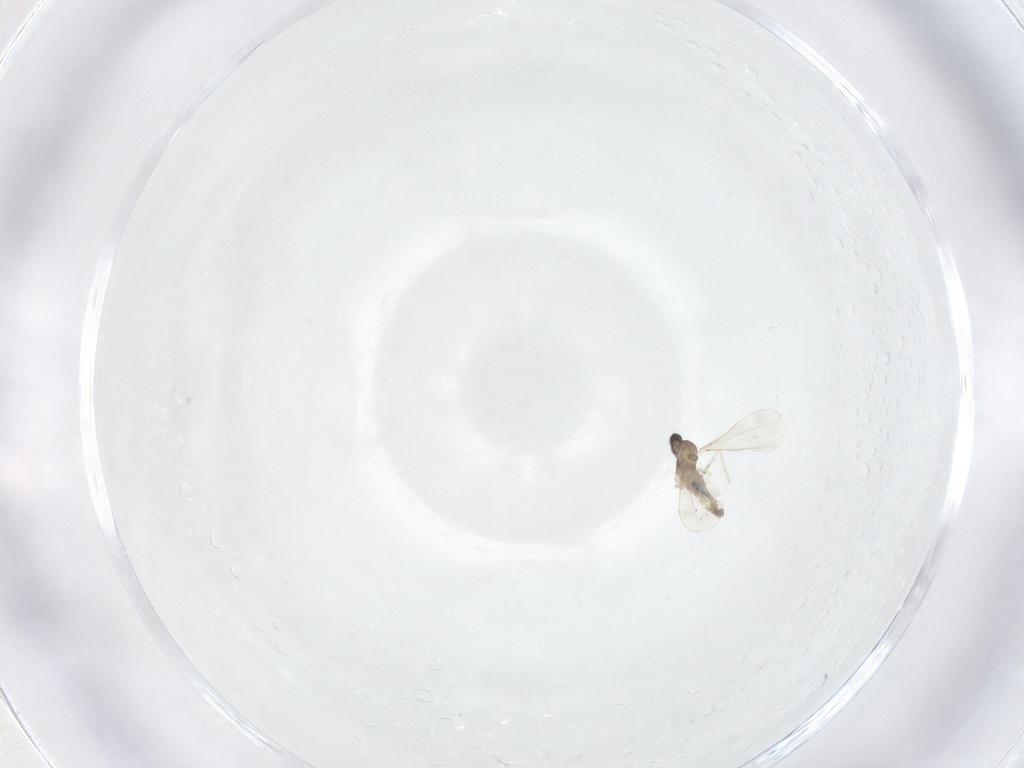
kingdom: Animalia
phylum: Arthropoda
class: Insecta
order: Diptera
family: Cecidomyiidae
